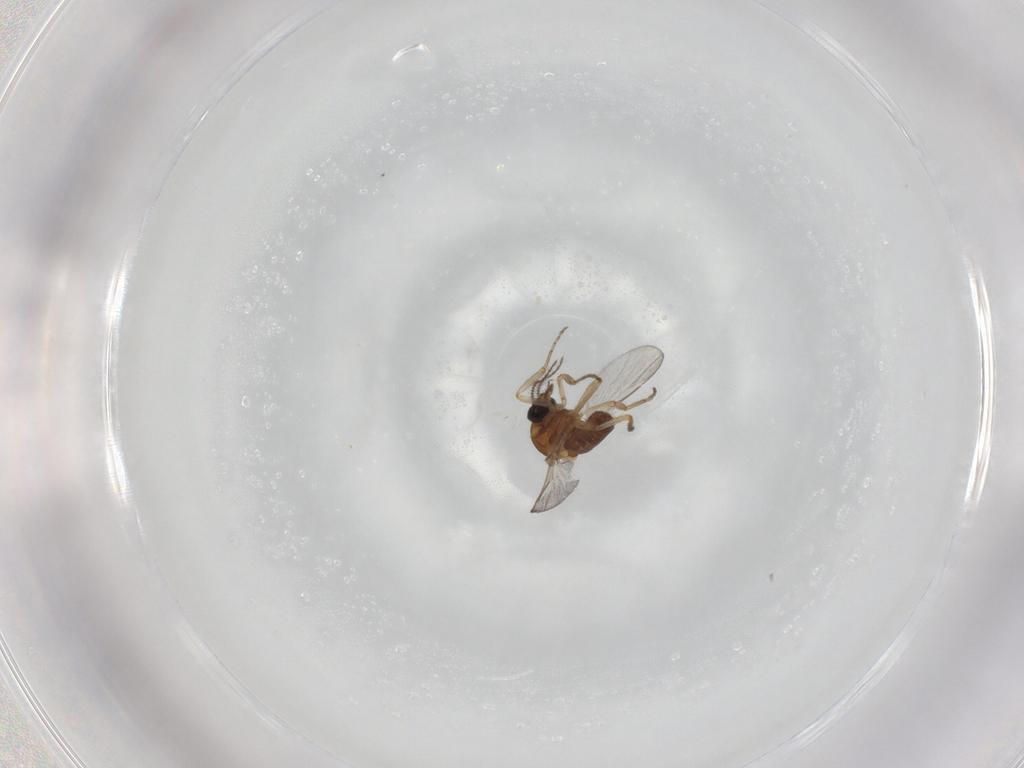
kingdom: Animalia
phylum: Arthropoda
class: Insecta
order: Diptera
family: Ceratopogonidae
